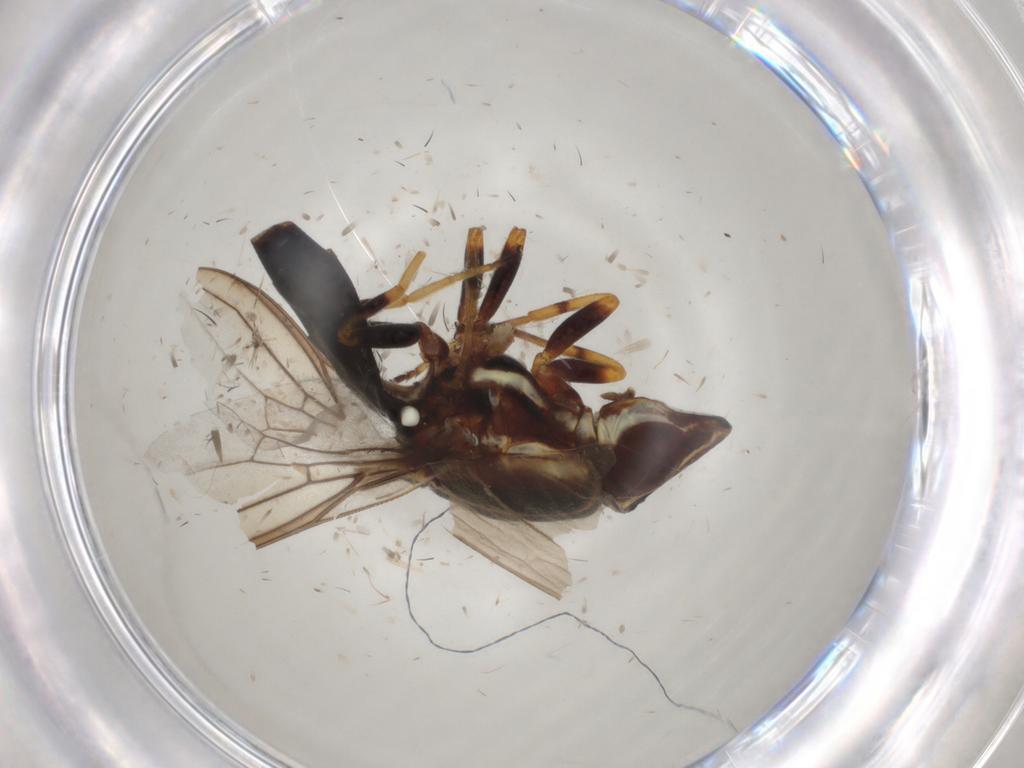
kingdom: Animalia
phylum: Arthropoda
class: Insecta
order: Diptera
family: Chloropidae
